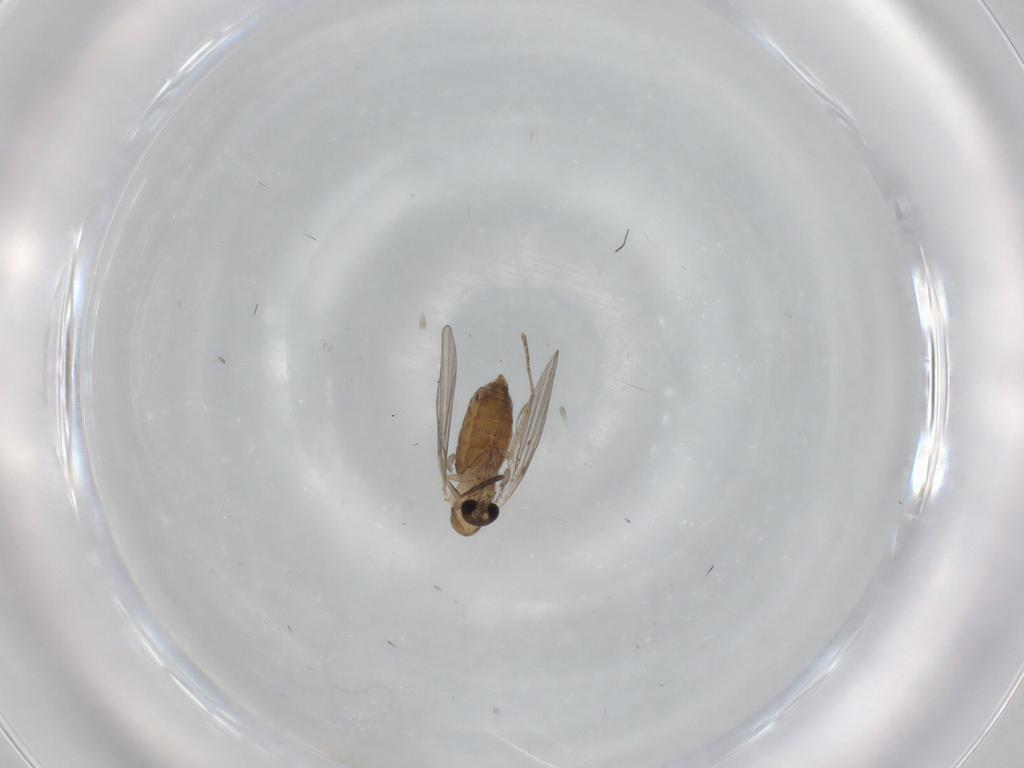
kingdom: Animalia
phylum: Arthropoda
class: Insecta
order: Diptera
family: Psychodidae
